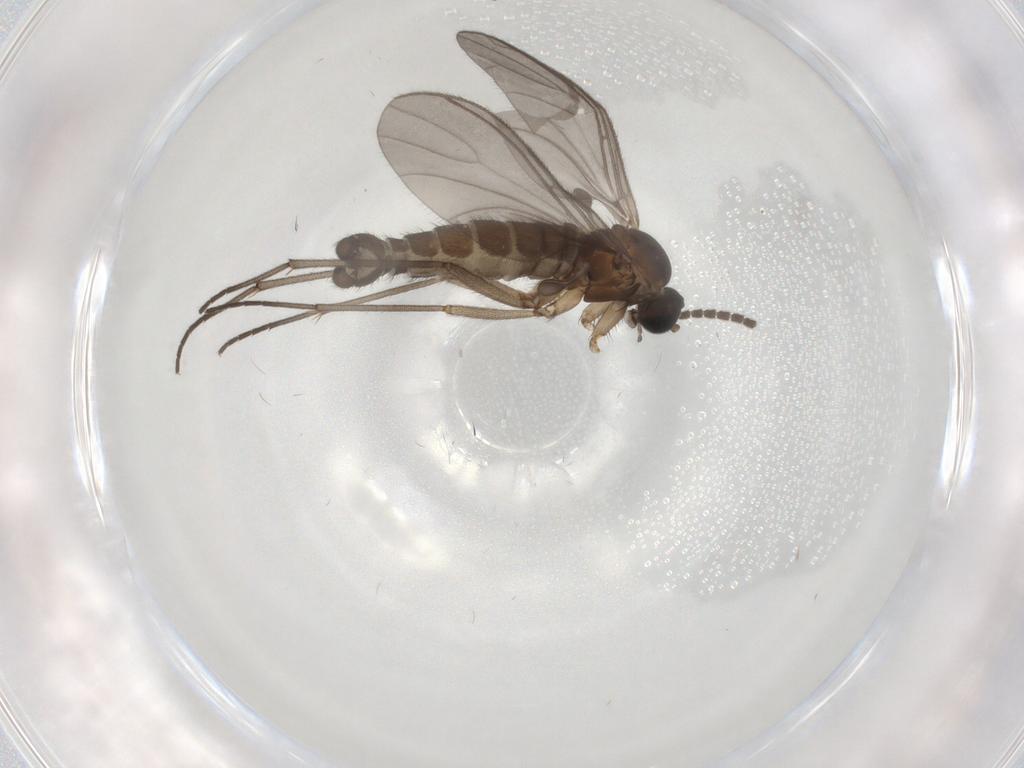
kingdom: Animalia
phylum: Arthropoda
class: Insecta
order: Diptera
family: Sciaridae
